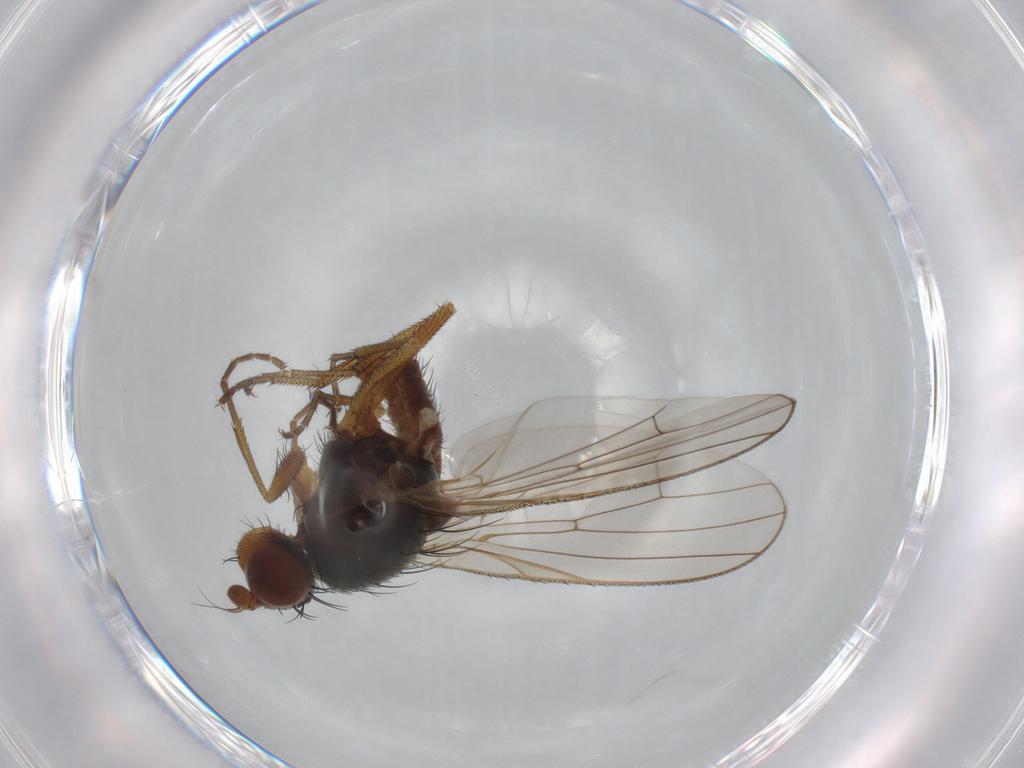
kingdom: Animalia
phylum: Arthropoda
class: Insecta
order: Diptera
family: Heleomyzidae
